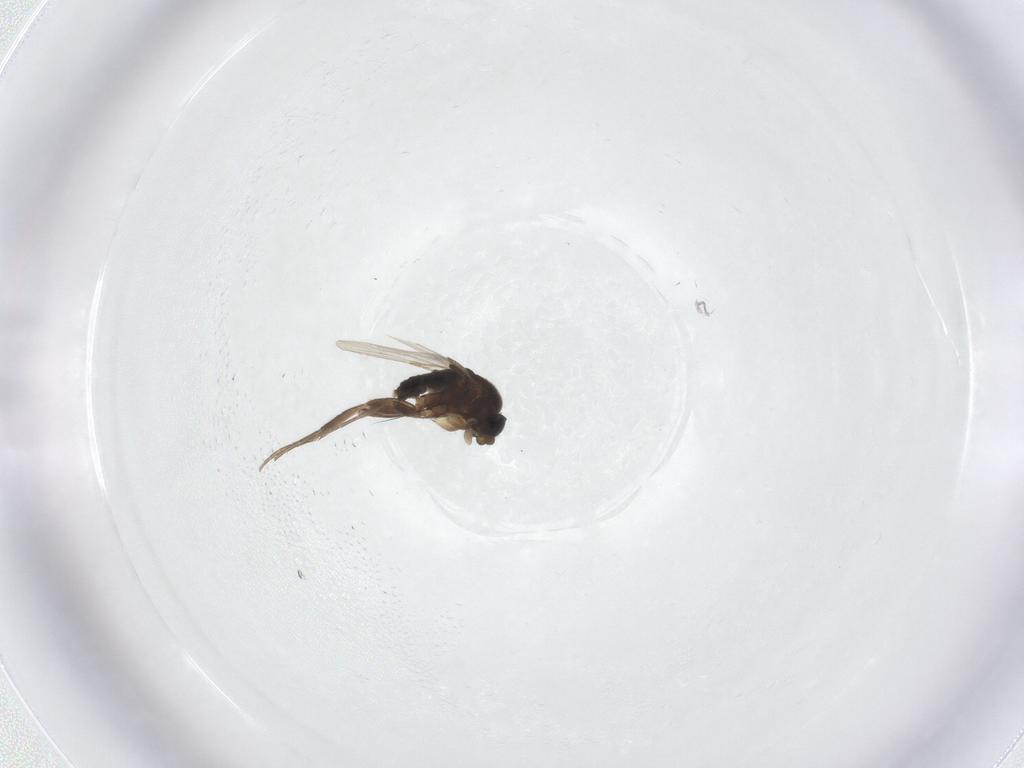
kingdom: Animalia
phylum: Arthropoda
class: Insecta
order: Diptera
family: Phoridae
